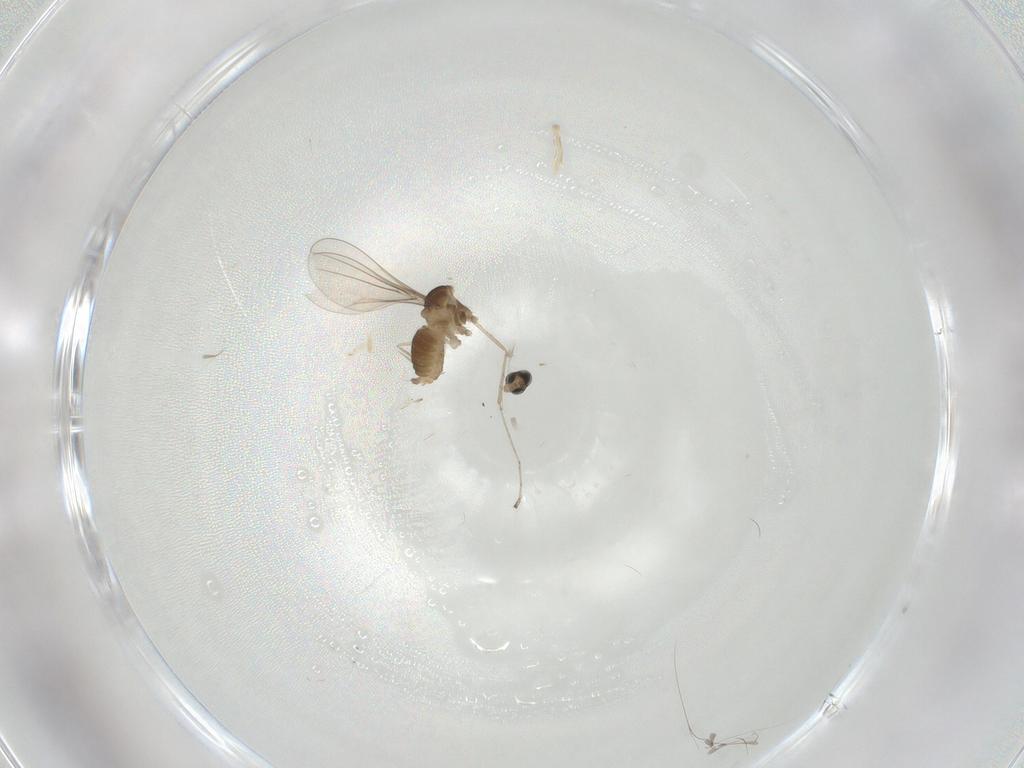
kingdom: Animalia
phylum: Arthropoda
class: Insecta
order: Diptera
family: Cecidomyiidae
